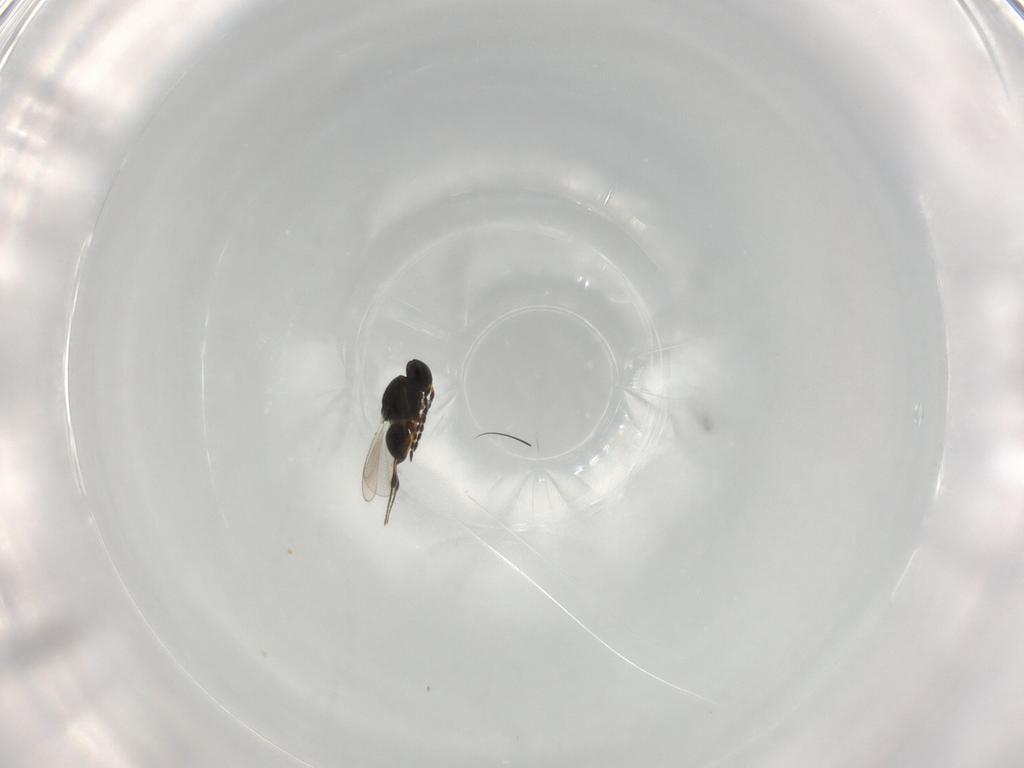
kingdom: Animalia
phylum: Arthropoda
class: Insecta
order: Hymenoptera
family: Platygastridae
